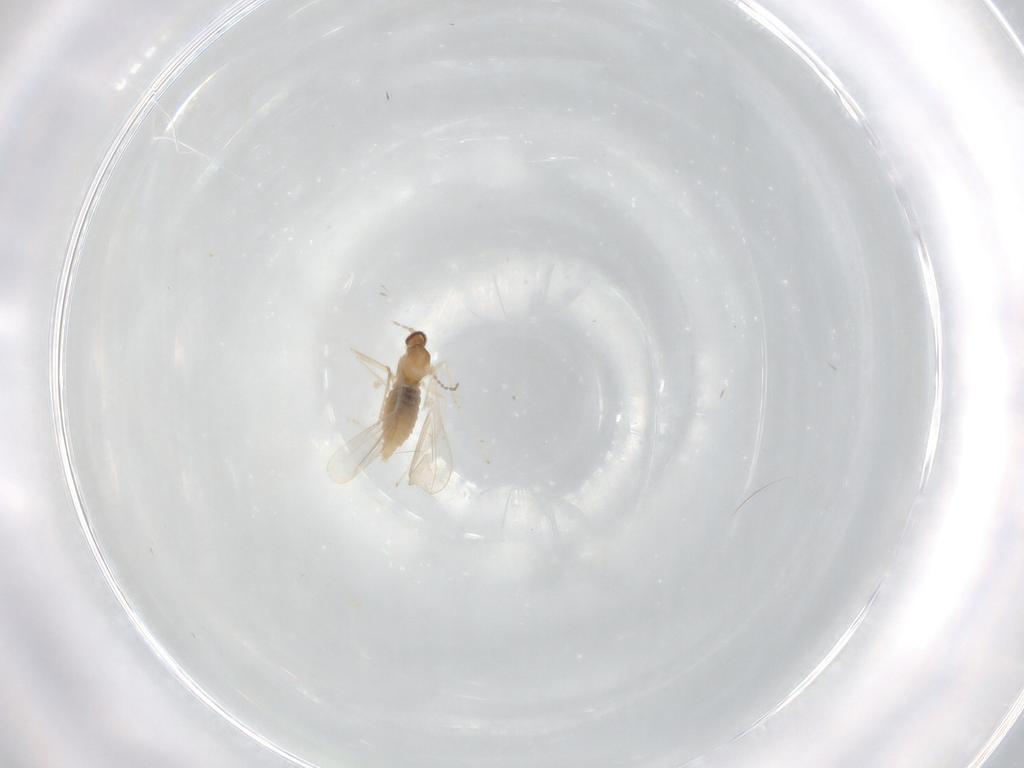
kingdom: Animalia
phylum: Arthropoda
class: Insecta
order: Diptera
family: Cecidomyiidae
